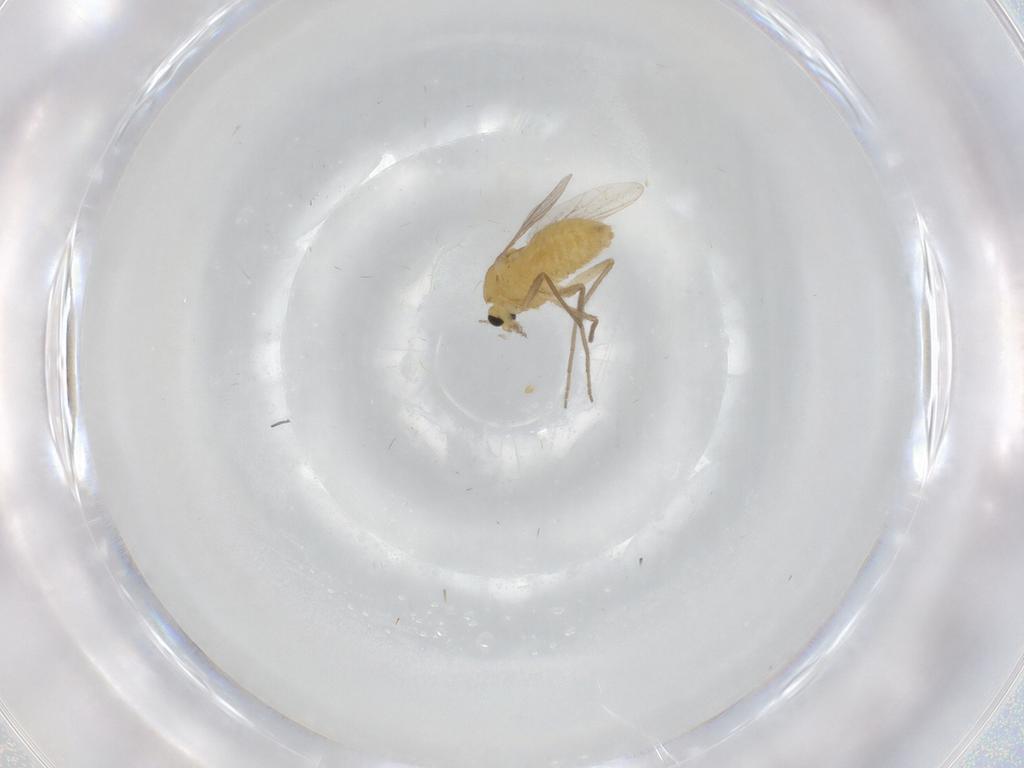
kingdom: Animalia
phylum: Arthropoda
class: Insecta
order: Diptera
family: Chironomidae
